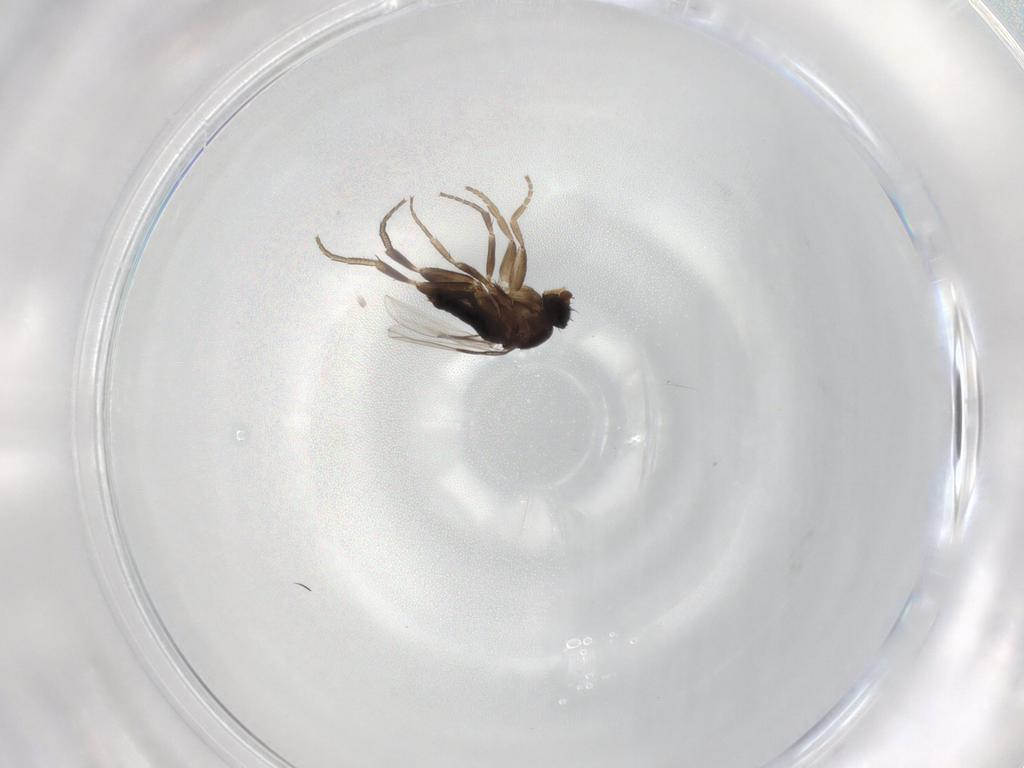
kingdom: Animalia
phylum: Arthropoda
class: Insecta
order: Diptera
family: Phoridae
